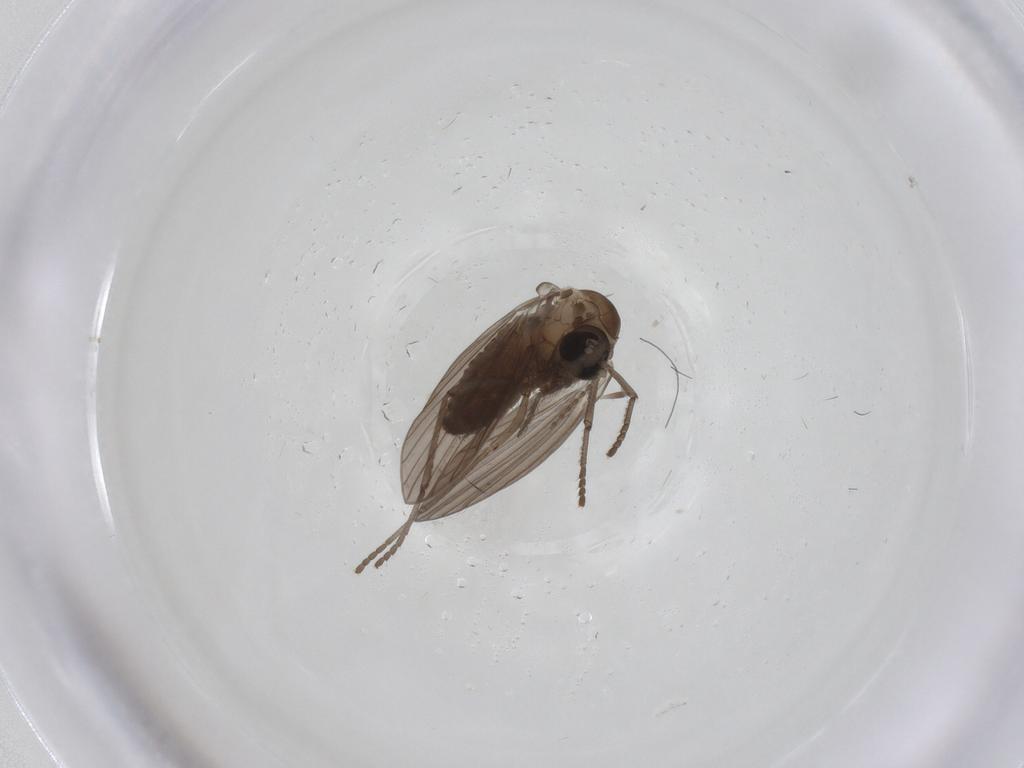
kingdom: Animalia
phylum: Arthropoda
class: Insecta
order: Diptera
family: Psychodidae
